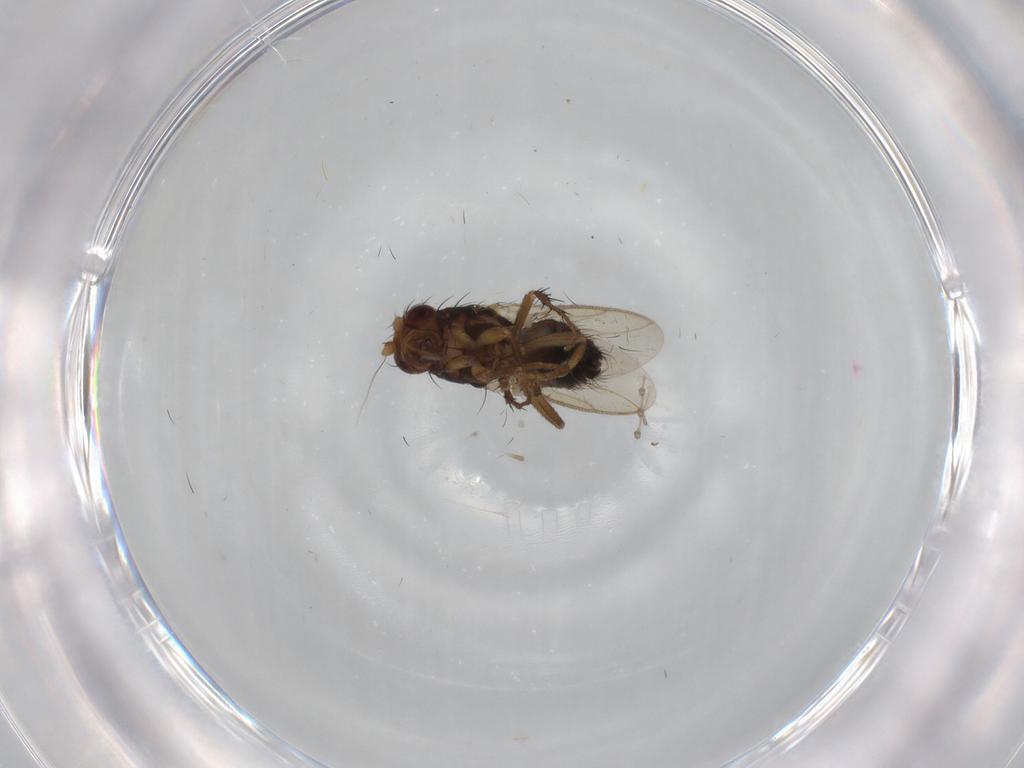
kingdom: Animalia
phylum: Arthropoda
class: Insecta
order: Diptera
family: Sphaeroceridae
